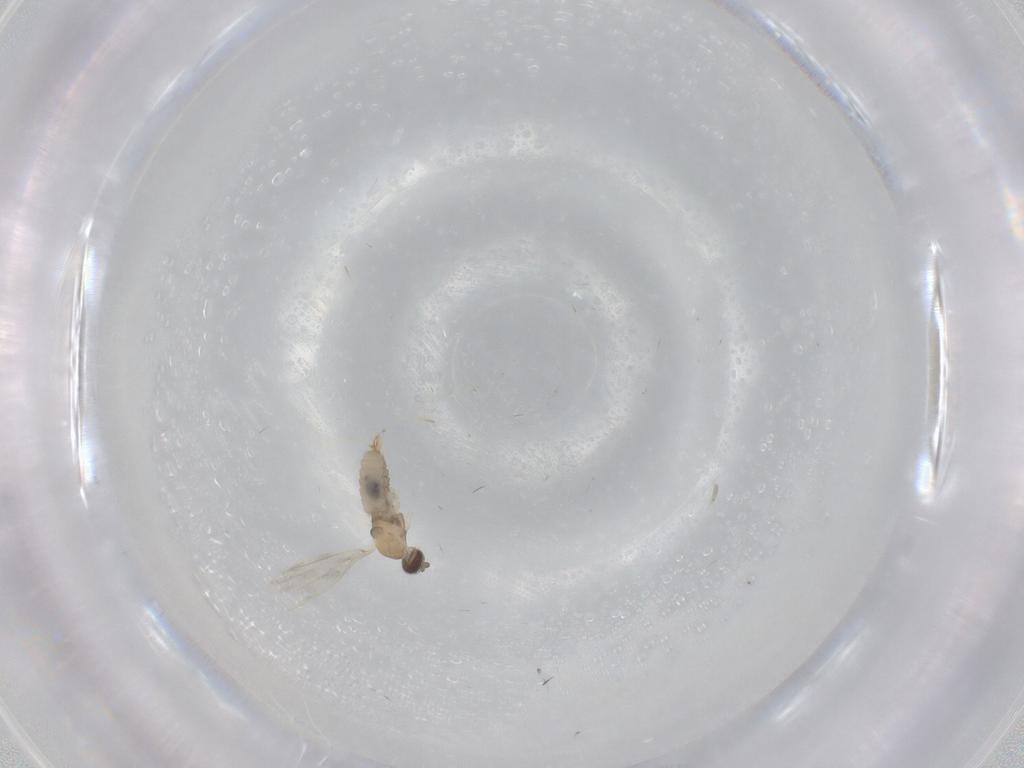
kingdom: Animalia
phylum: Arthropoda
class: Insecta
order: Diptera
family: Cecidomyiidae
